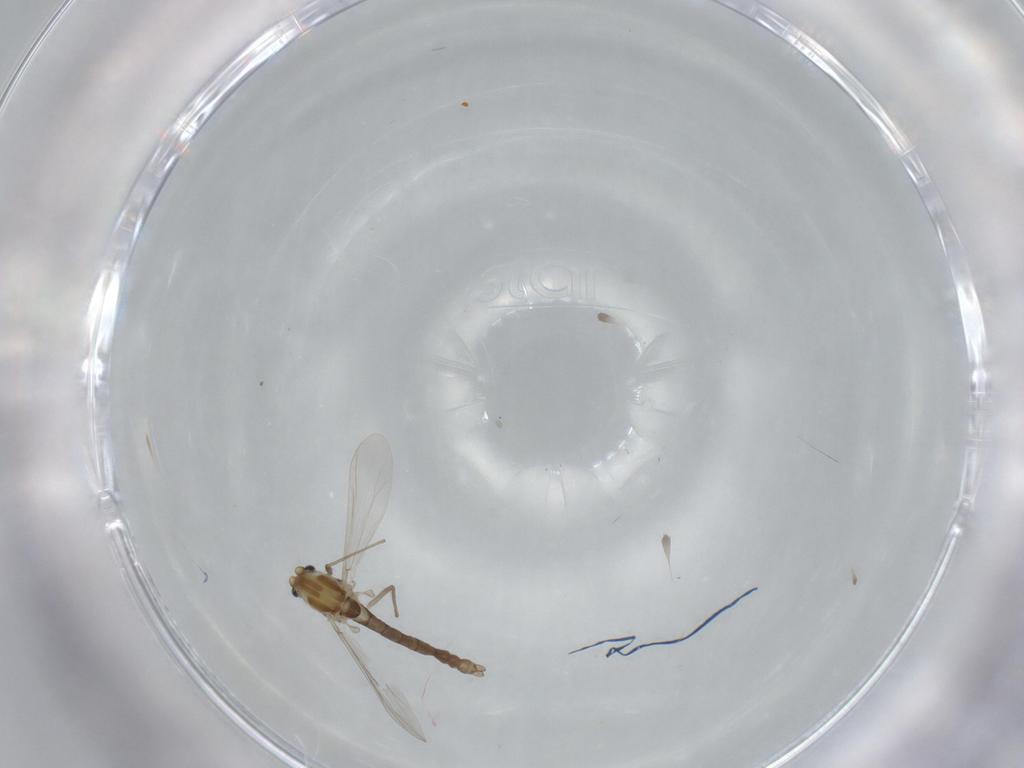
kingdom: Animalia
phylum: Arthropoda
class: Insecta
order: Diptera
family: Chironomidae
